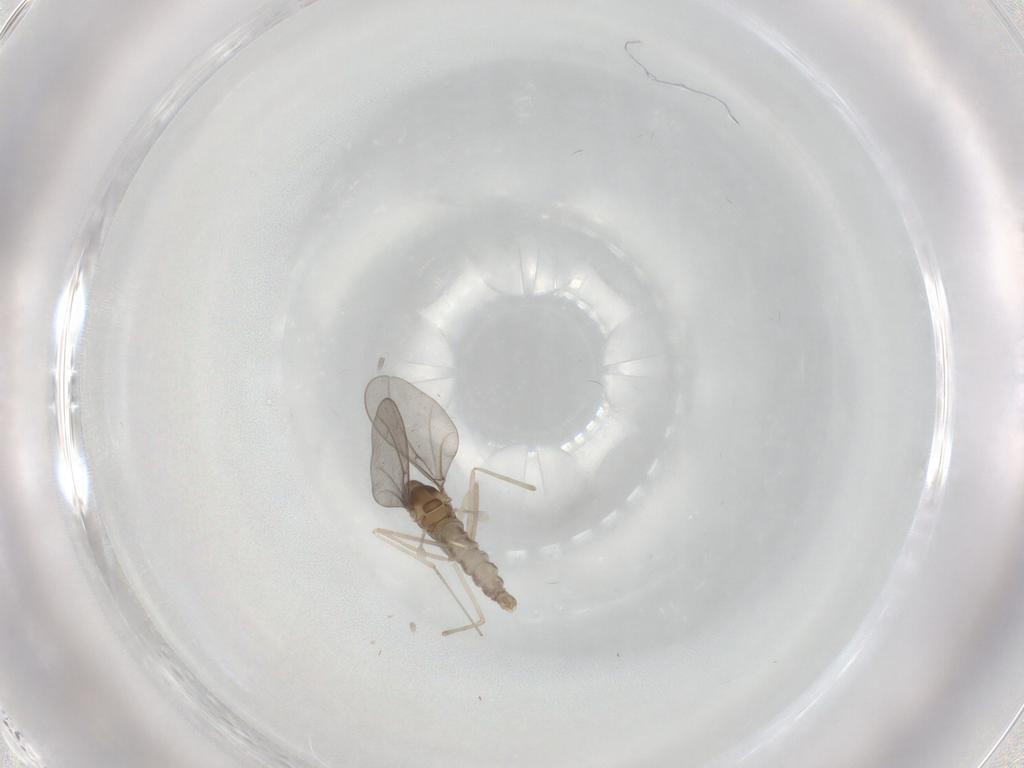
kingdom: Animalia
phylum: Arthropoda
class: Insecta
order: Diptera
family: Cecidomyiidae
